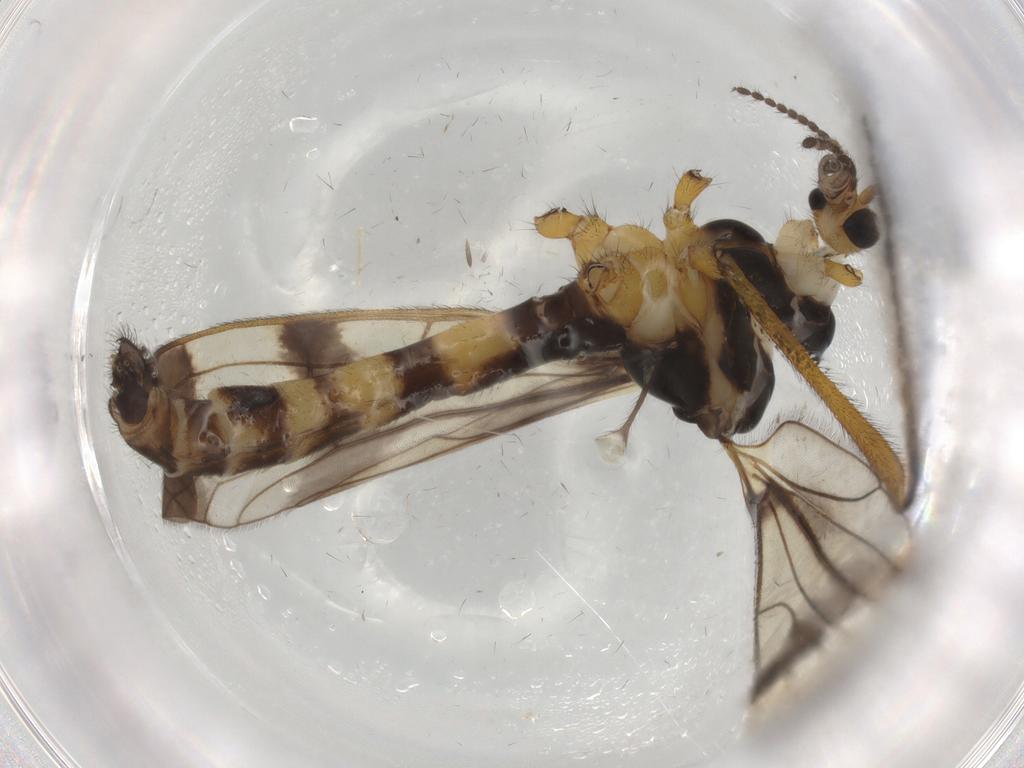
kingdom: Animalia
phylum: Arthropoda
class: Insecta
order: Diptera
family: Limoniidae
